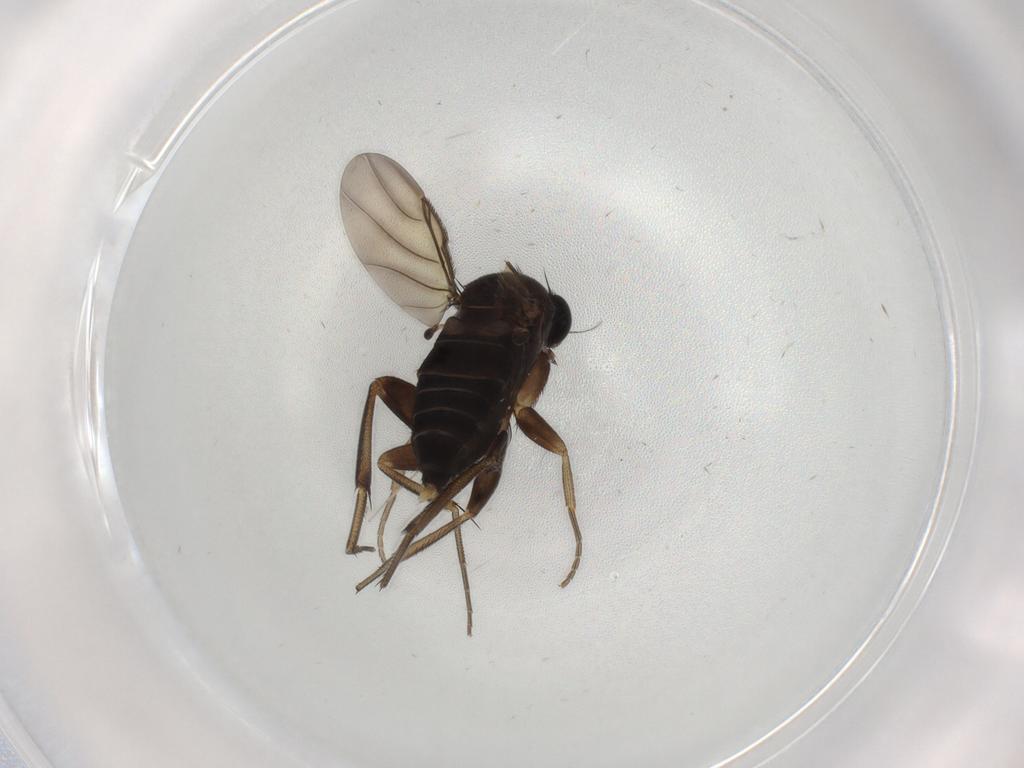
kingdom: Animalia
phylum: Arthropoda
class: Insecta
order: Diptera
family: Phoridae
